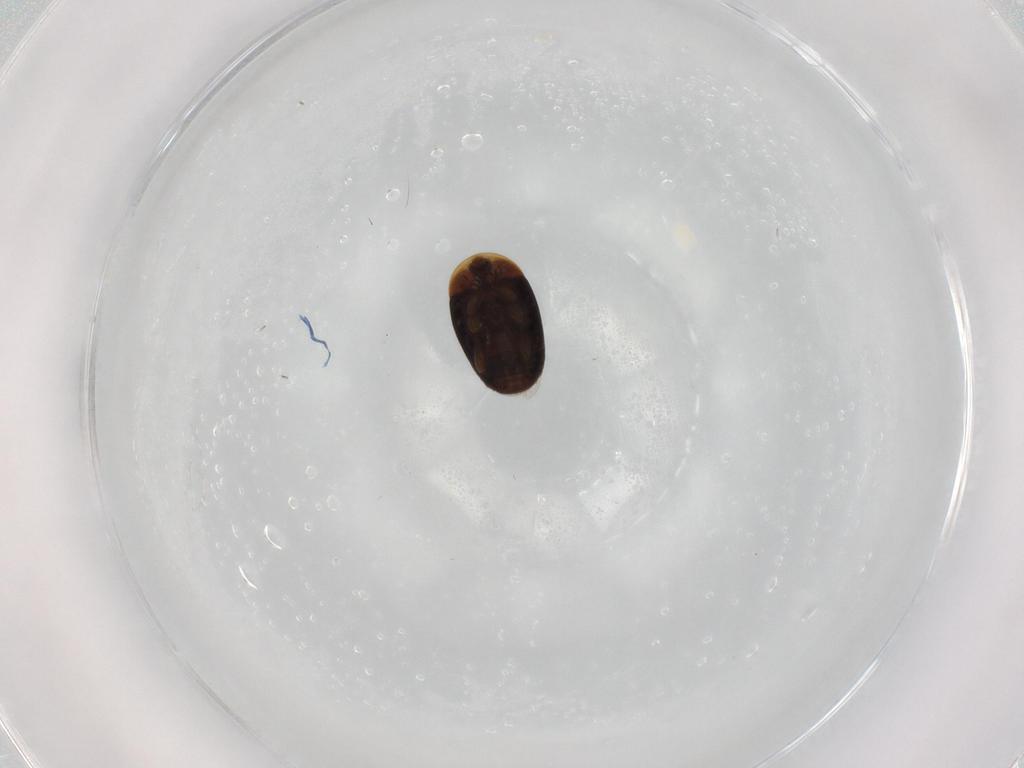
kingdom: Animalia
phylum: Arthropoda
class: Insecta
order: Coleoptera
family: Corylophidae
